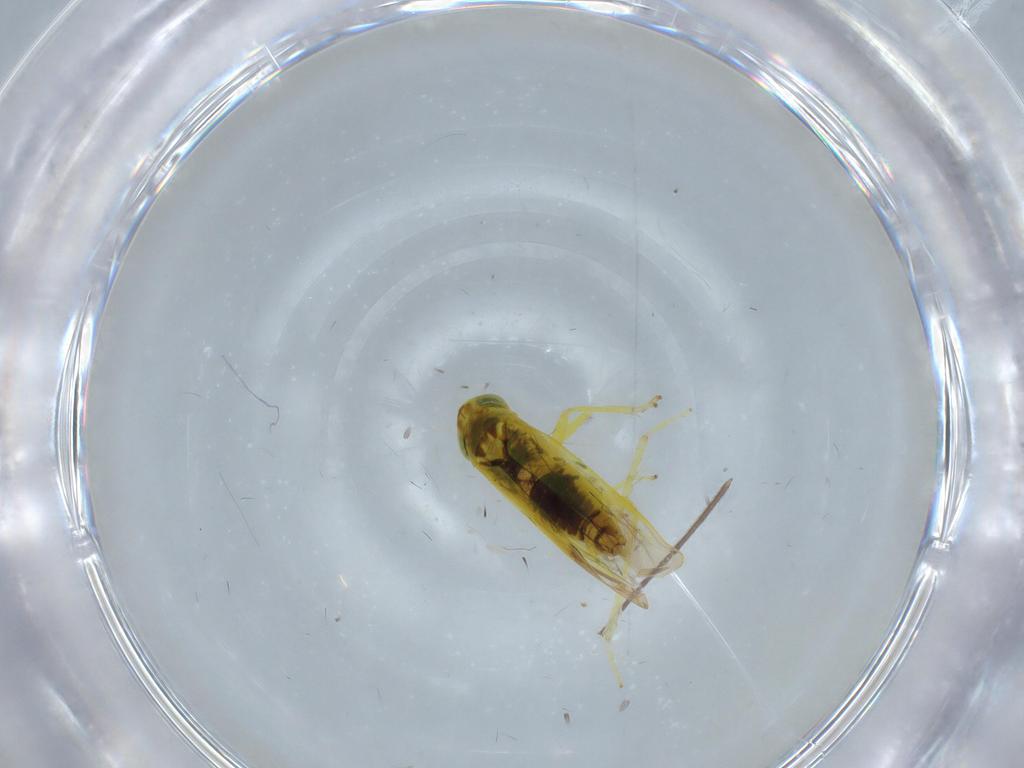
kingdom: Animalia
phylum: Arthropoda
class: Insecta
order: Hemiptera
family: Cicadellidae
